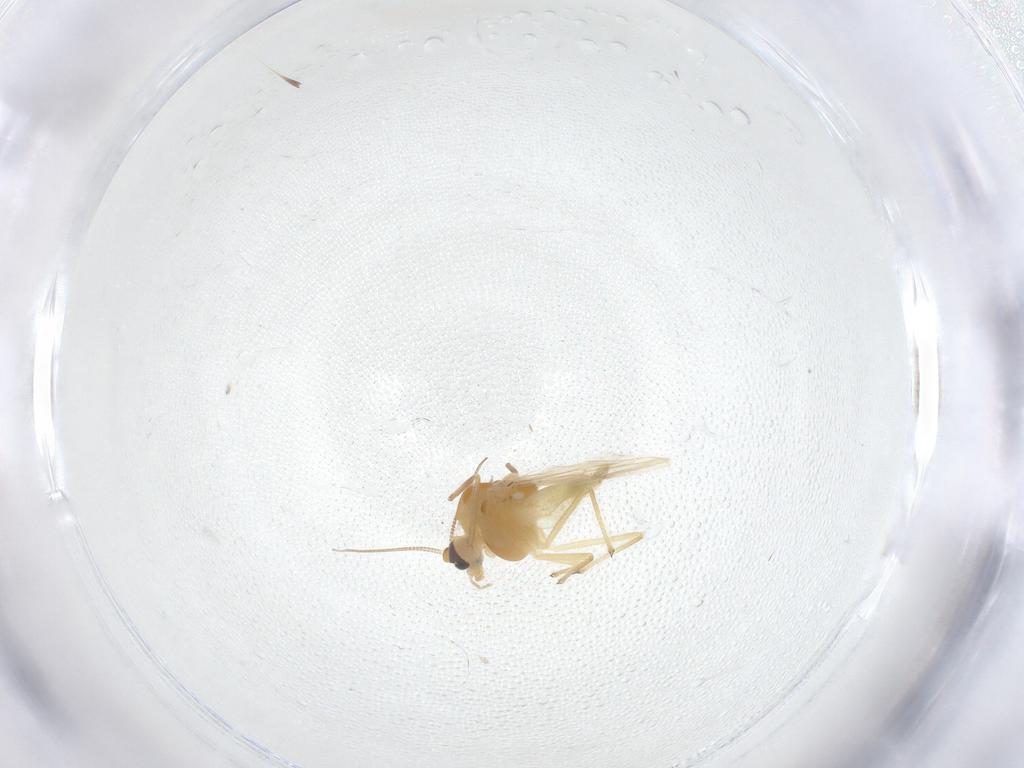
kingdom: Animalia
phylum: Arthropoda
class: Insecta
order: Diptera
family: Chironomidae
